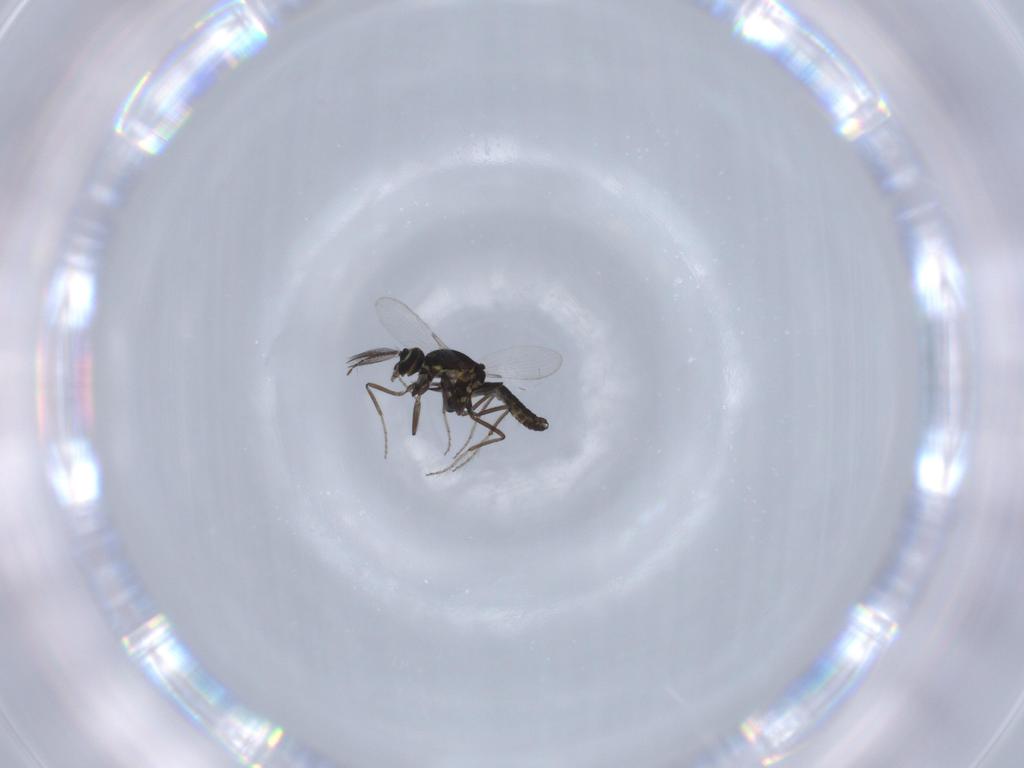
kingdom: Animalia
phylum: Arthropoda
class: Insecta
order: Diptera
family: Ceratopogonidae
